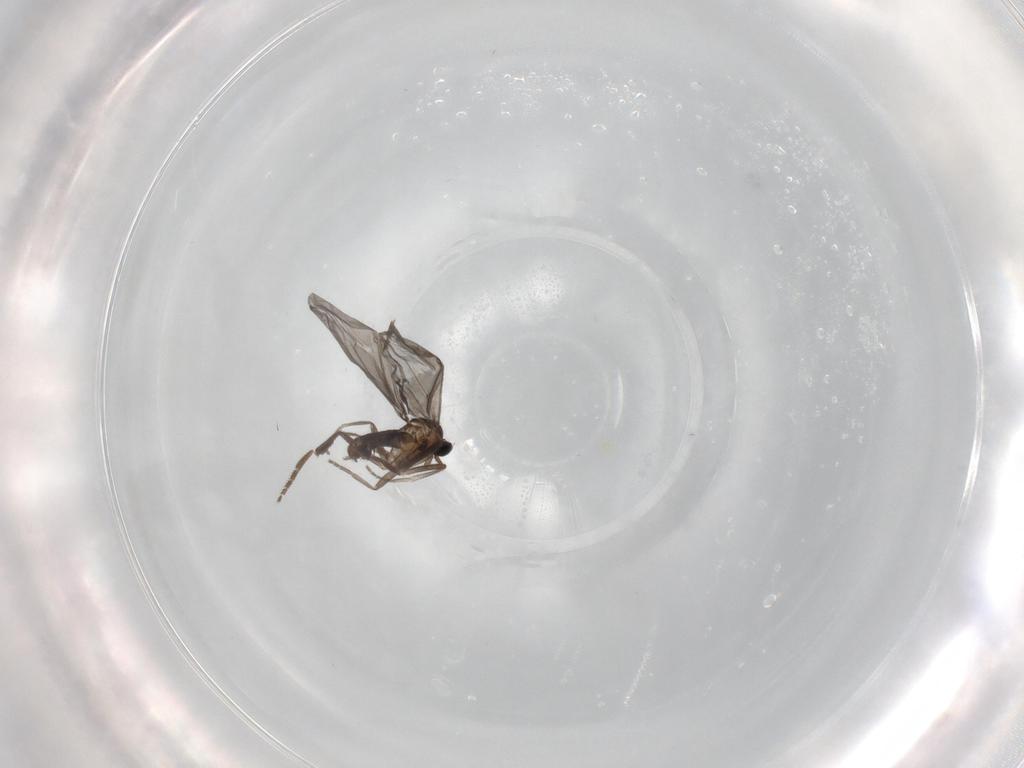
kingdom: Animalia
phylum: Arthropoda
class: Insecta
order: Diptera
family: Ditomyiidae
